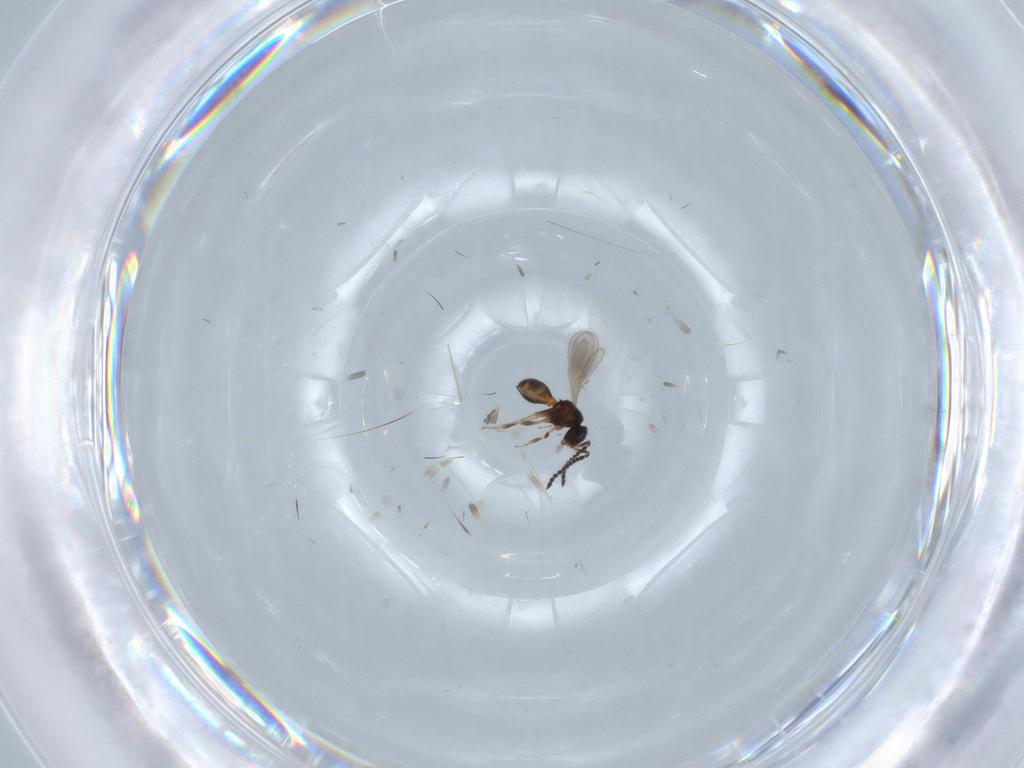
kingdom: Animalia
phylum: Arthropoda
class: Insecta
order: Hymenoptera
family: Scelionidae
